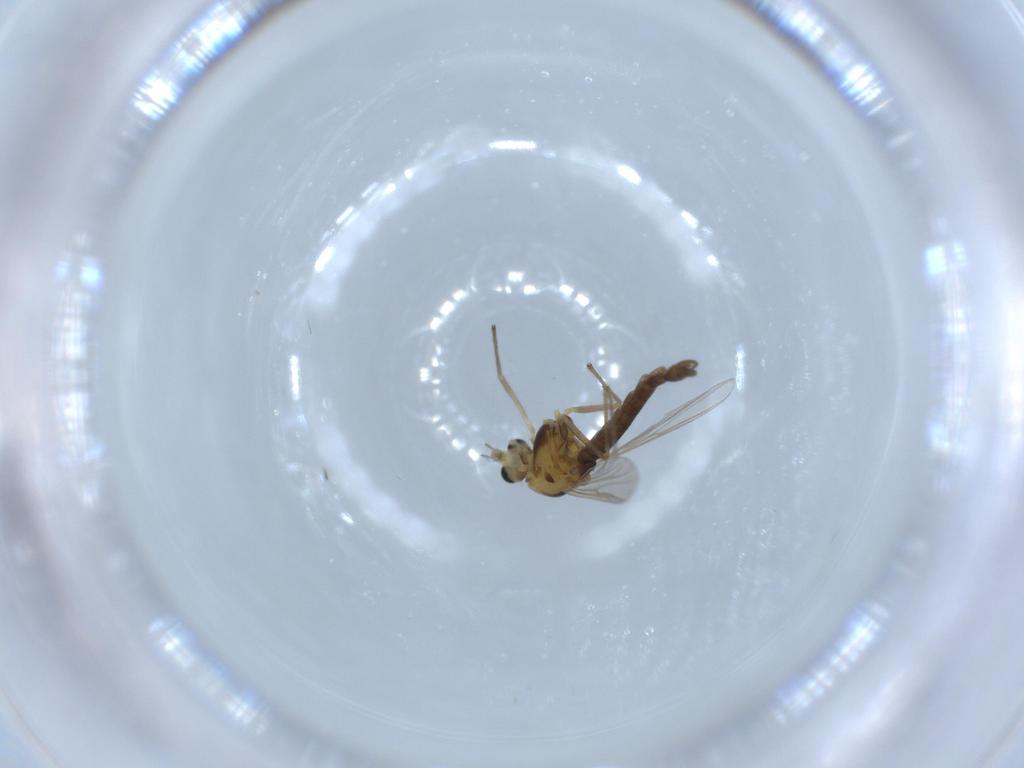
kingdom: Animalia
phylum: Arthropoda
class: Insecta
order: Diptera
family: Chironomidae
